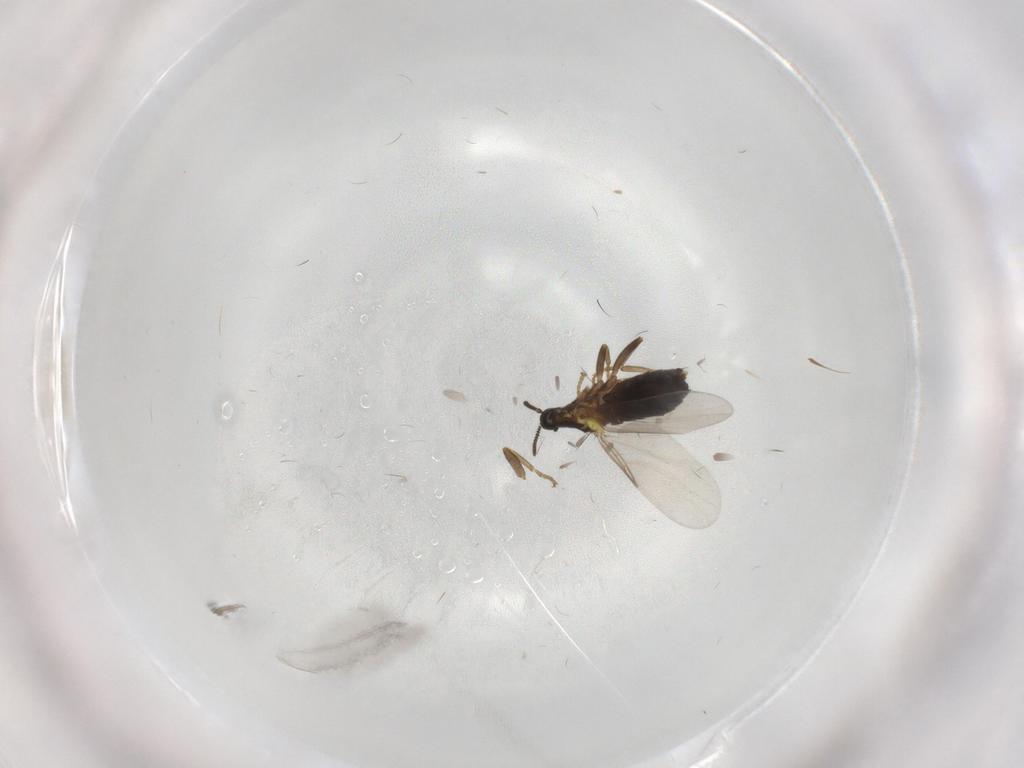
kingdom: Animalia
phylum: Arthropoda
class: Insecta
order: Diptera
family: Scatopsidae
